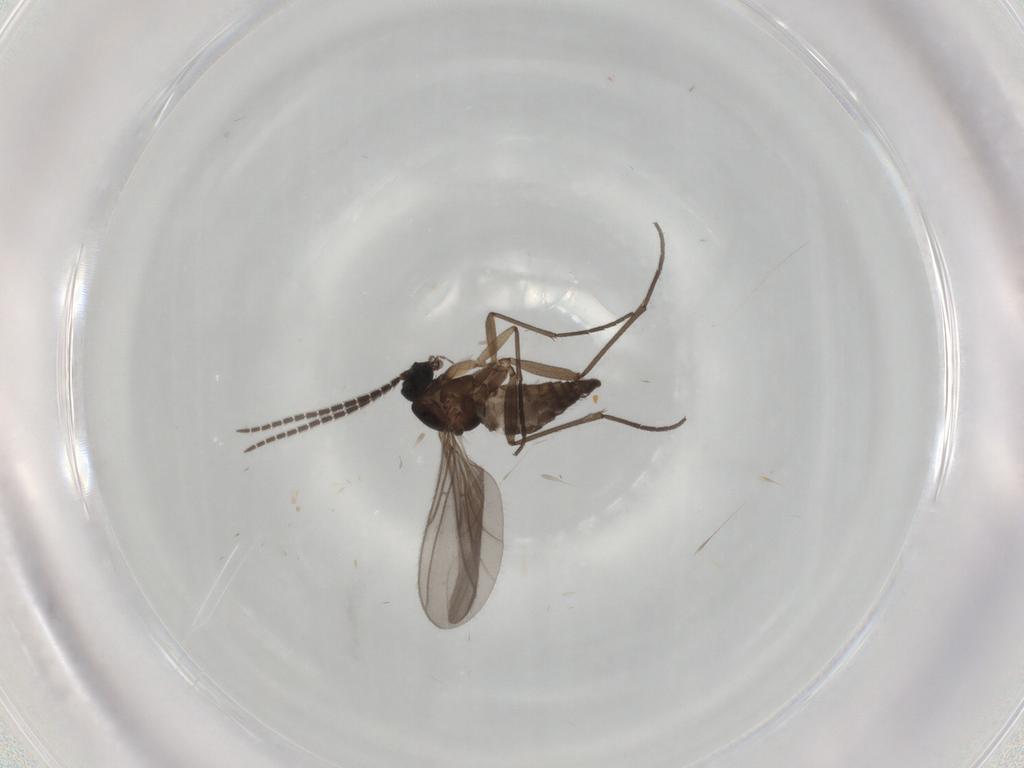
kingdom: Animalia
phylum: Arthropoda
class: Insecta
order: Diptera
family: Sciaridae
